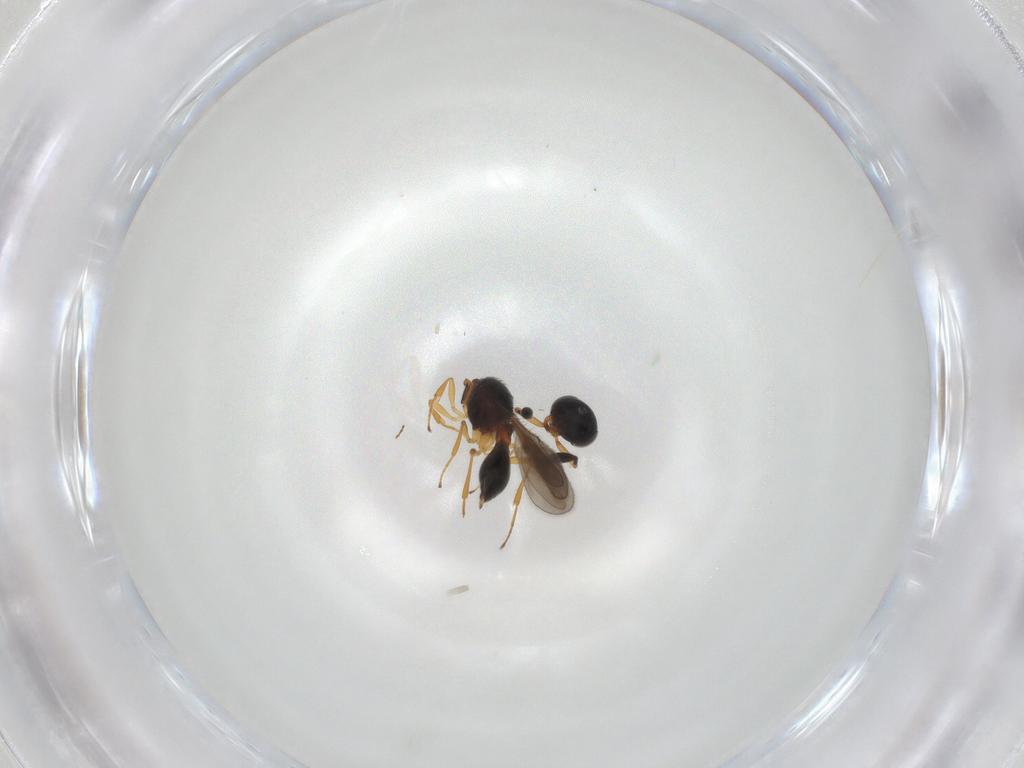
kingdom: Animalia
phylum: Arthropoda
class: Insecta
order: Hymenoptera
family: Scelionidae
